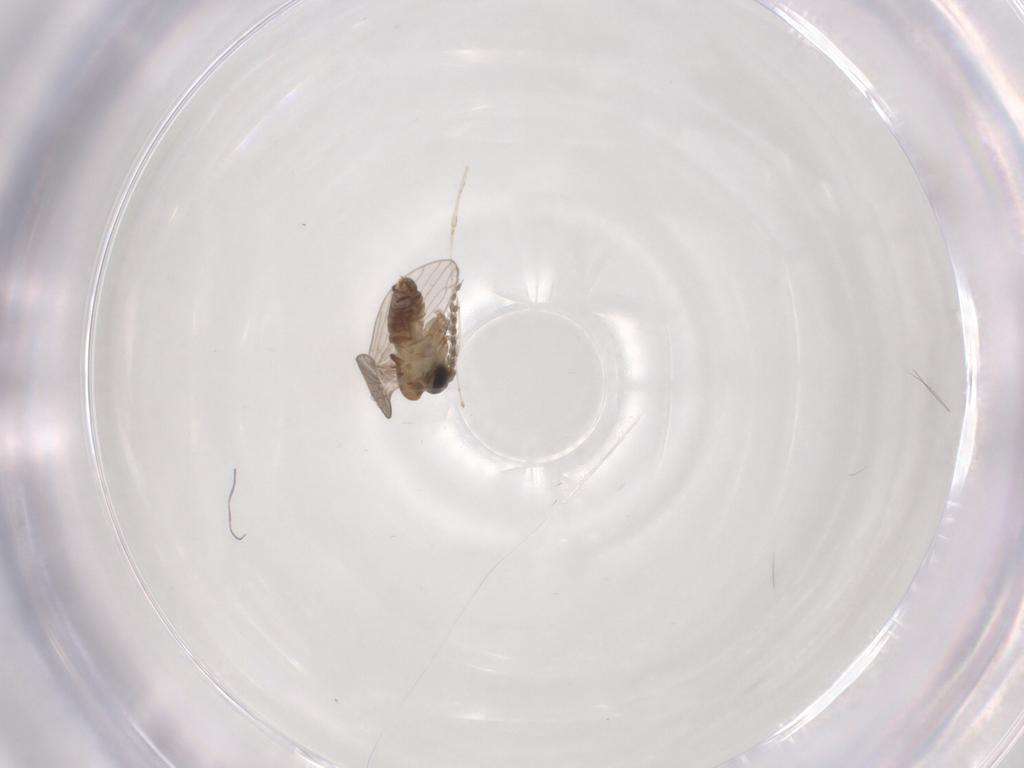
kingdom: Animalia
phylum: Arthropoda
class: Insecta
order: Diptera
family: Psychodidae
